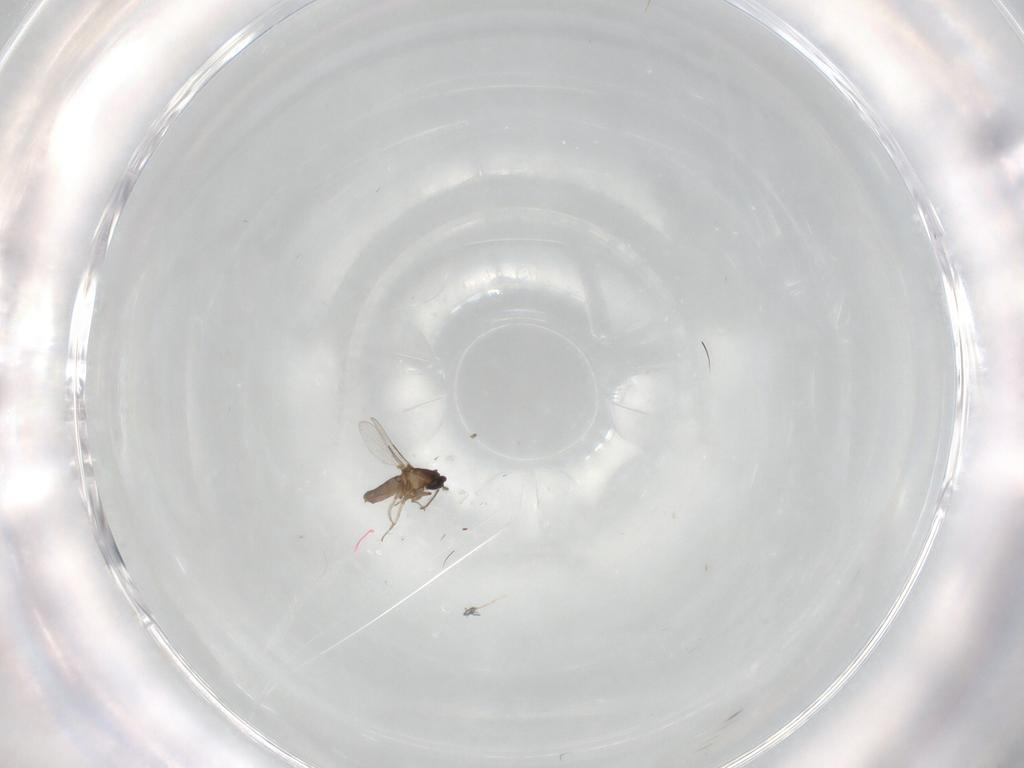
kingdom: Animalia
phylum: Arthropoda
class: Insecta
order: Diptera
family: Ceratopogonidae
